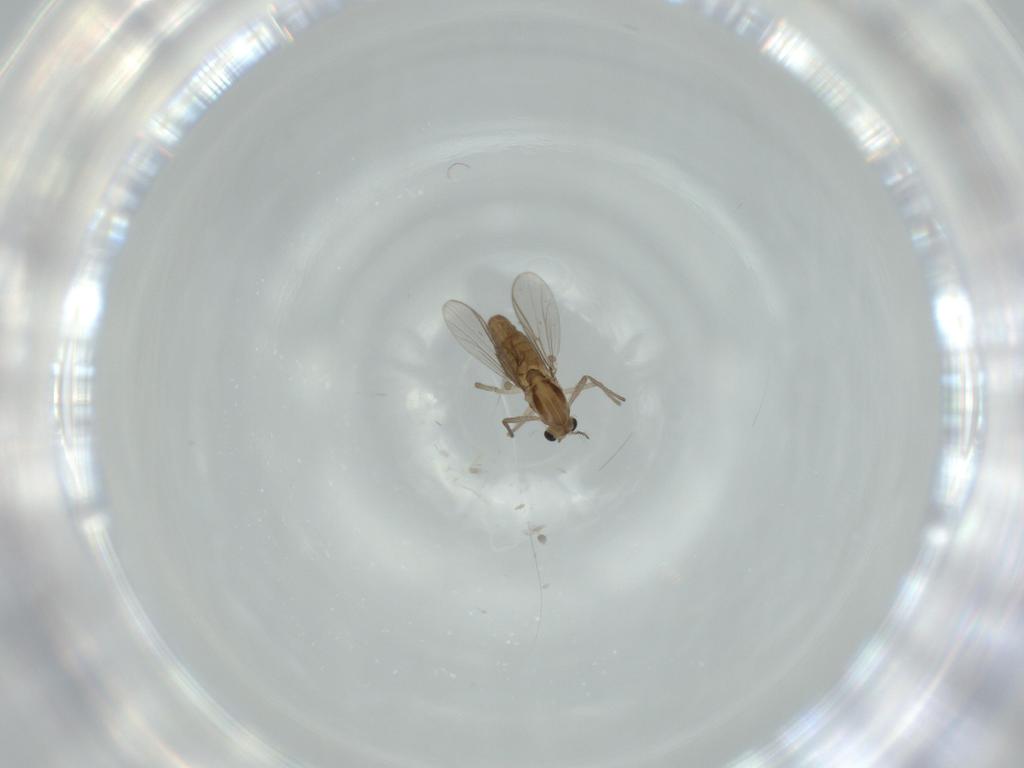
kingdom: Animalia
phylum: Arthropoda
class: Insecta
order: Diptera
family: Chironomidae
